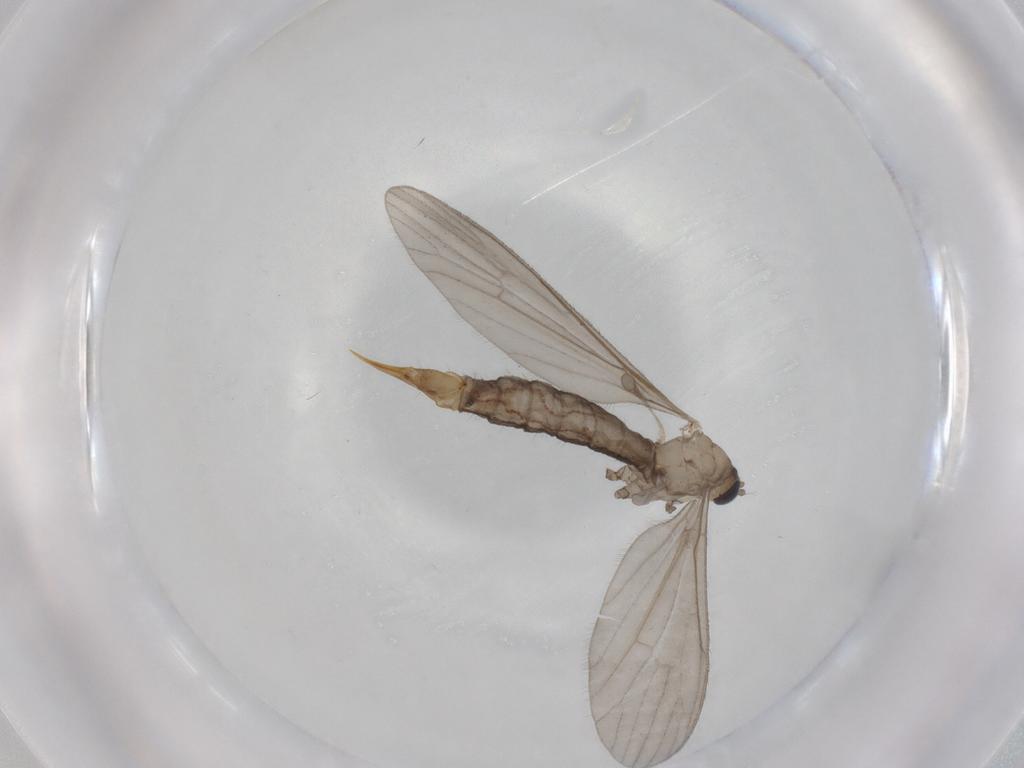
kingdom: Animalia
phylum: Arthropoda
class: Insecta
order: Diptera
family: Limoniidae
